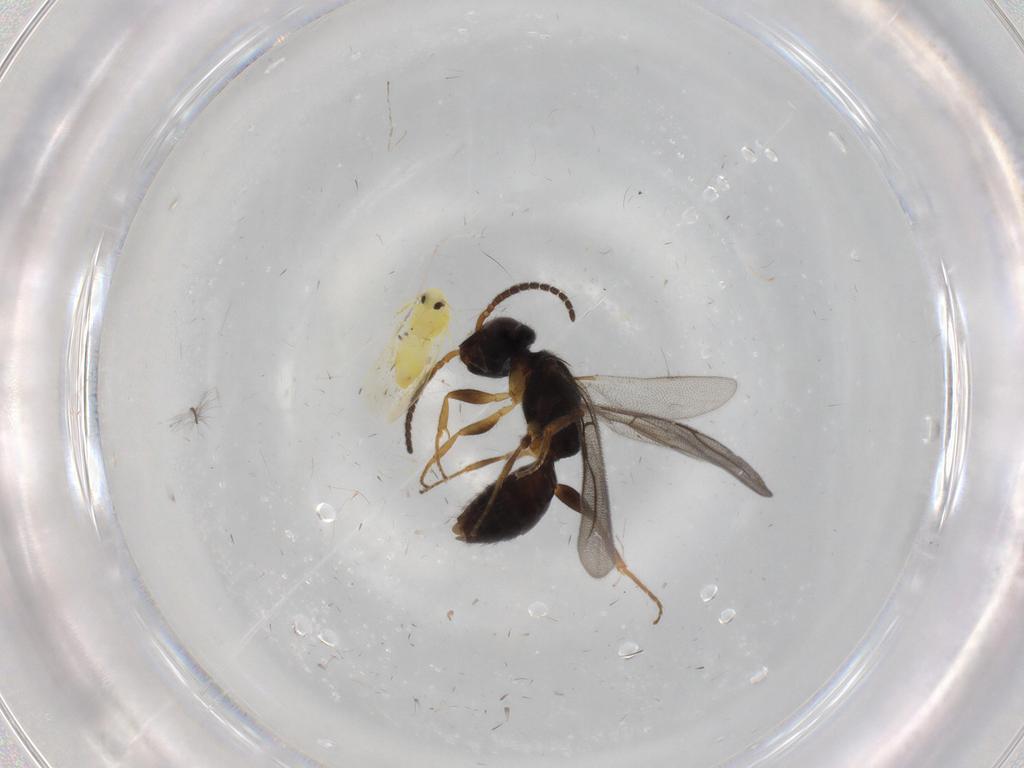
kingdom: Animalia
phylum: Arthropoda
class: Insecta
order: Hemiptera
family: Aleyrodidae
